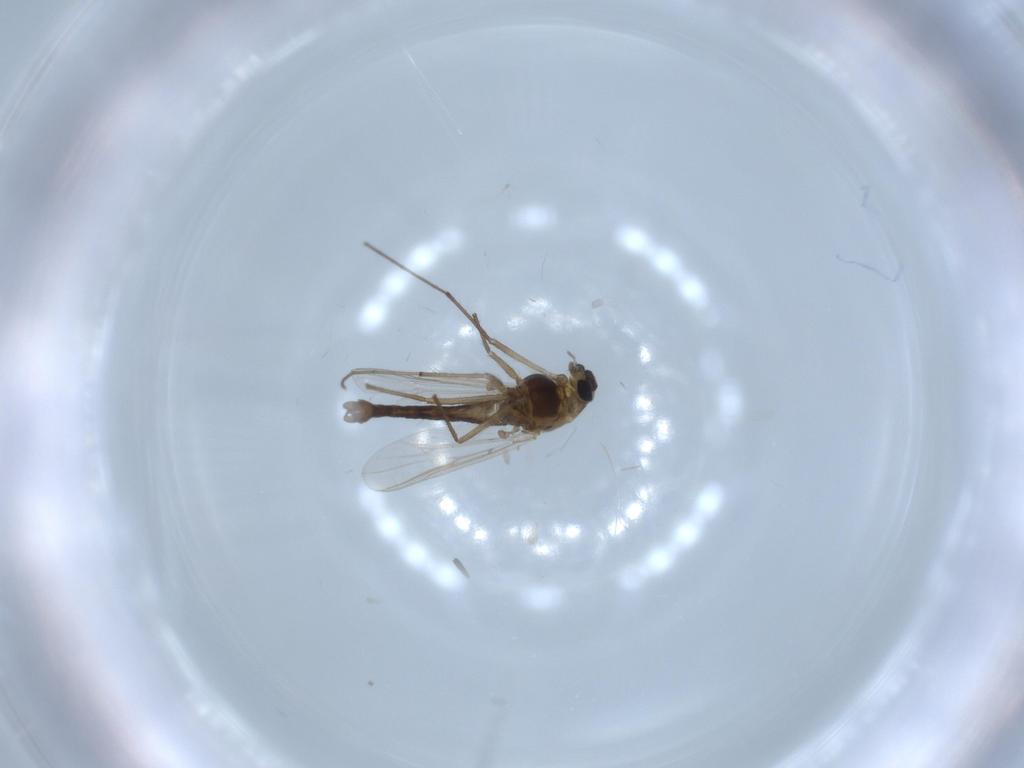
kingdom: Animalia
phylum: Arthropoda
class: Insecta
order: Diptera
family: Chironomidae
